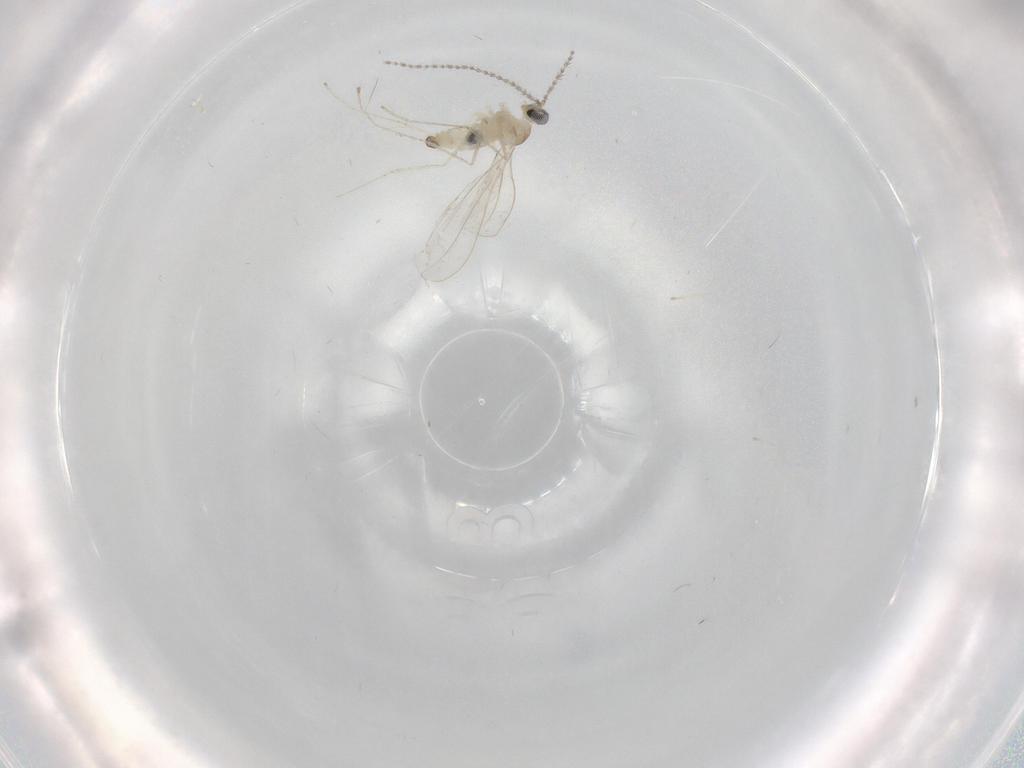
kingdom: Animalia
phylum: Arthropoda
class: Insecta
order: Diptera
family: Cecidomyiidae
